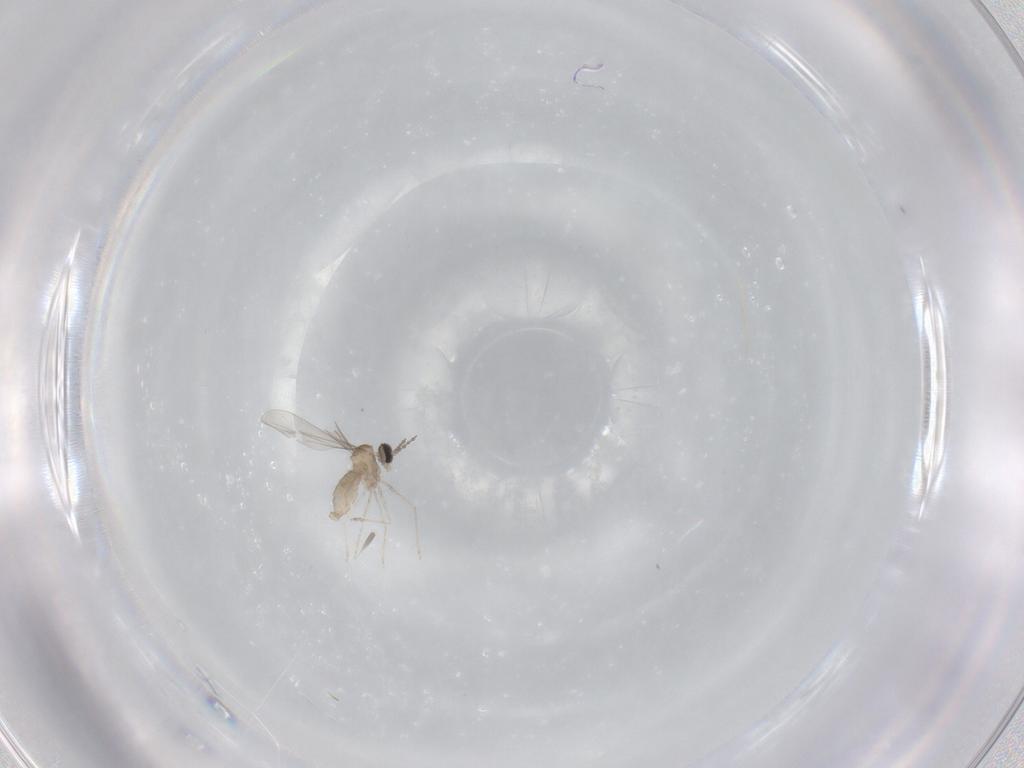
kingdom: Animalia
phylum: Arthropoda
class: Insecta
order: Diptera
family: Cecidomyiidae
